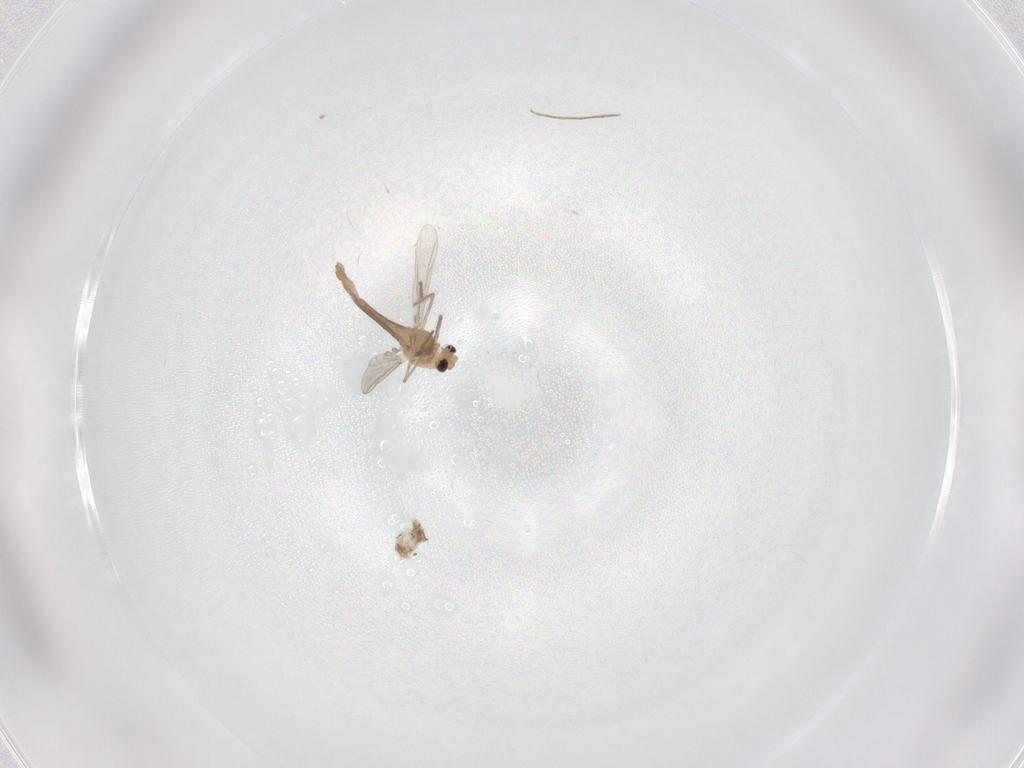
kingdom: Animalia
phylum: Arthropoda
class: Insecta
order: Diptera
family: Chironomidae
